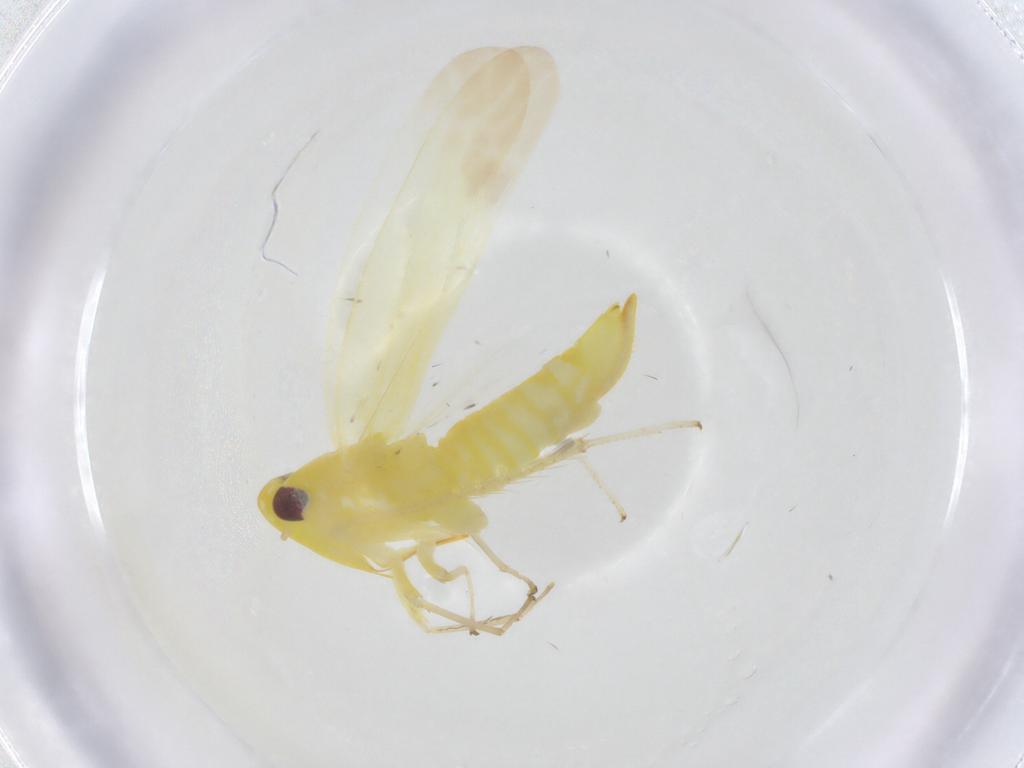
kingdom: Animalia
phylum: Arthropoda
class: Insecta
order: Hemiptera
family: Cicadellidae
